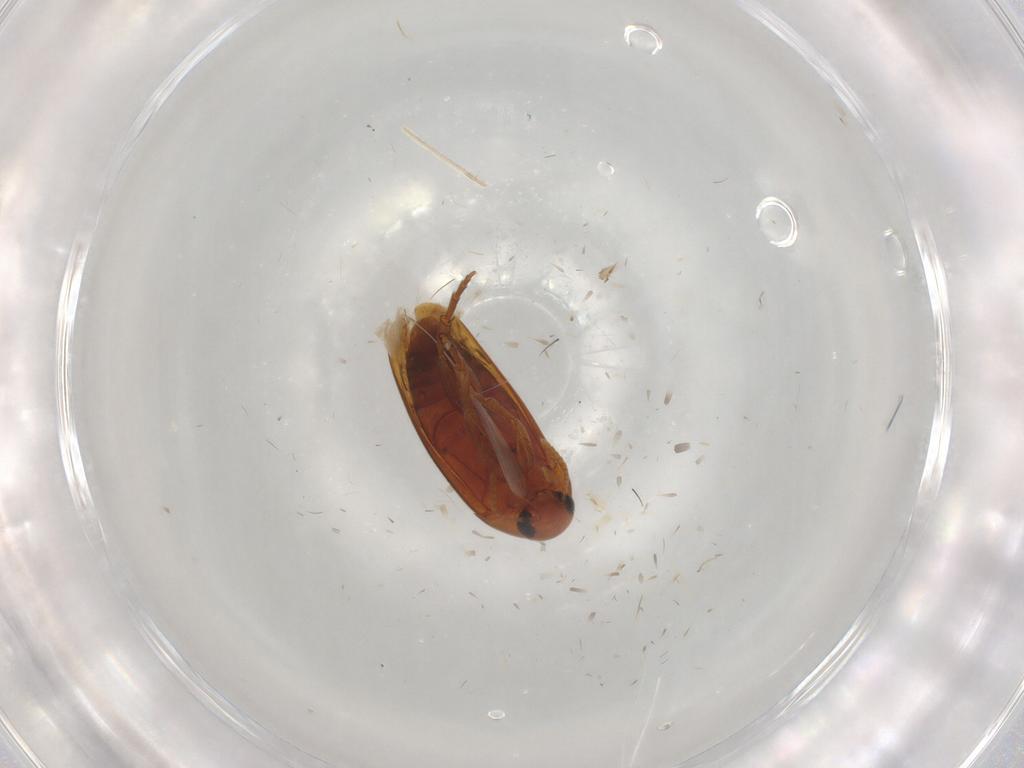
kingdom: Animalia
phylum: Arthropoda
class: Insecta
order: Coleoptera
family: Scraptiidae
